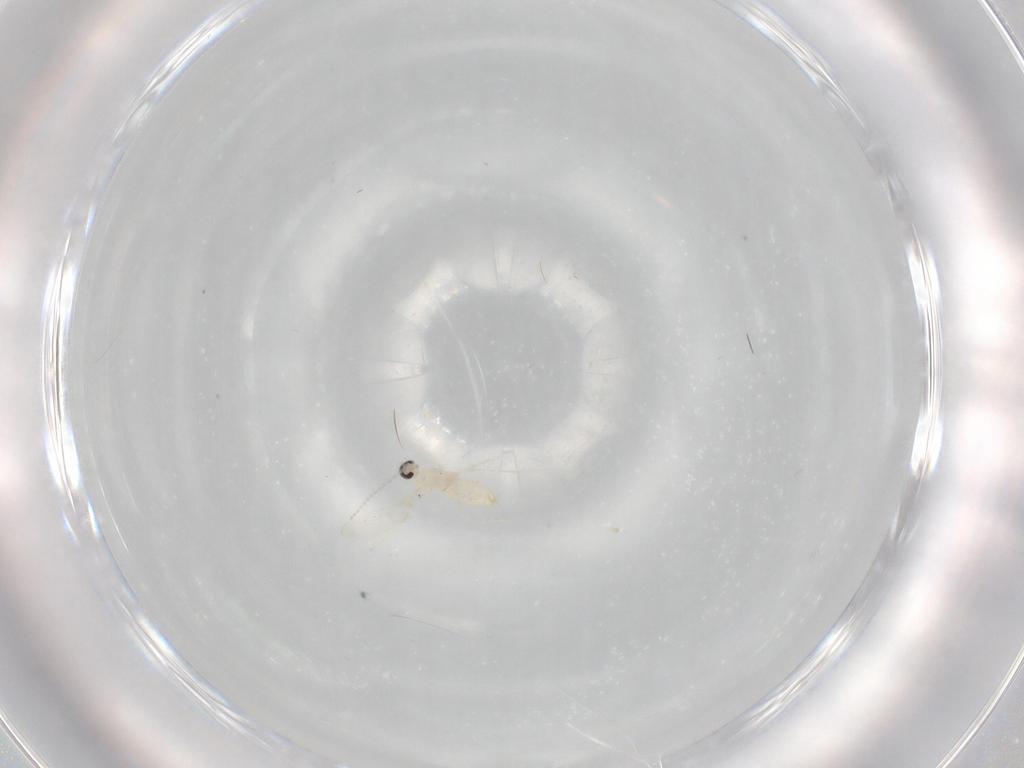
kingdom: Animalia
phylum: Arthropoda
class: Insecta
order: Diptera
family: Cecidomyiidae
